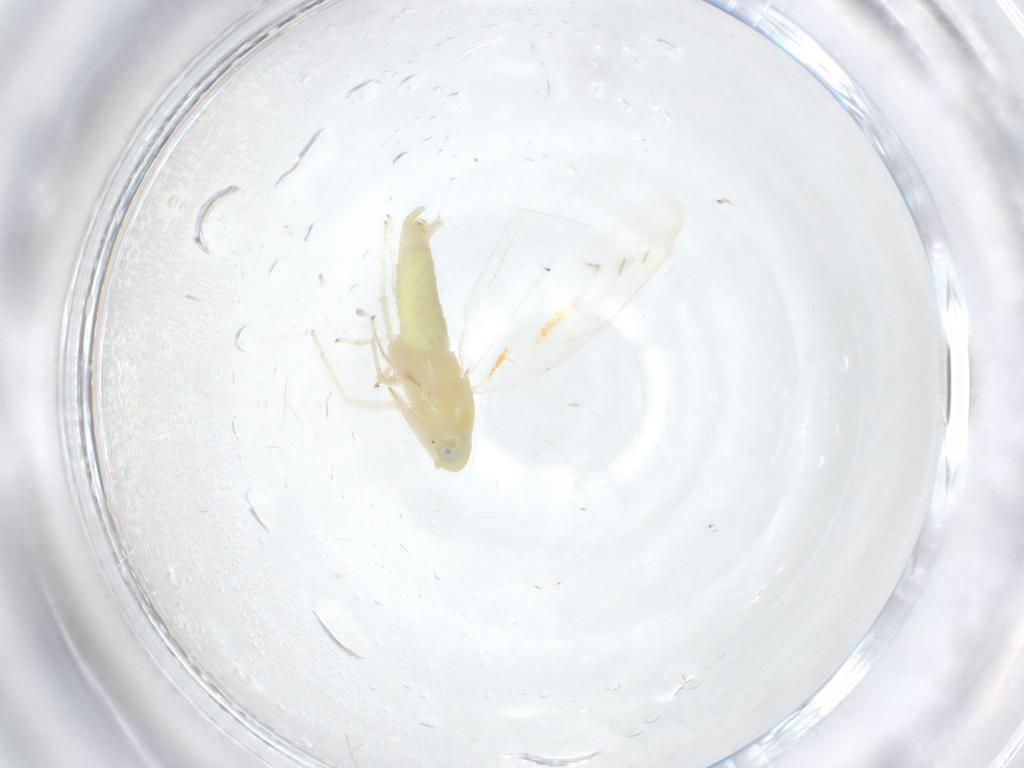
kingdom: Animalia
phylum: Arthropoda
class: Insecta
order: Hemiptera
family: Cicadellidae
